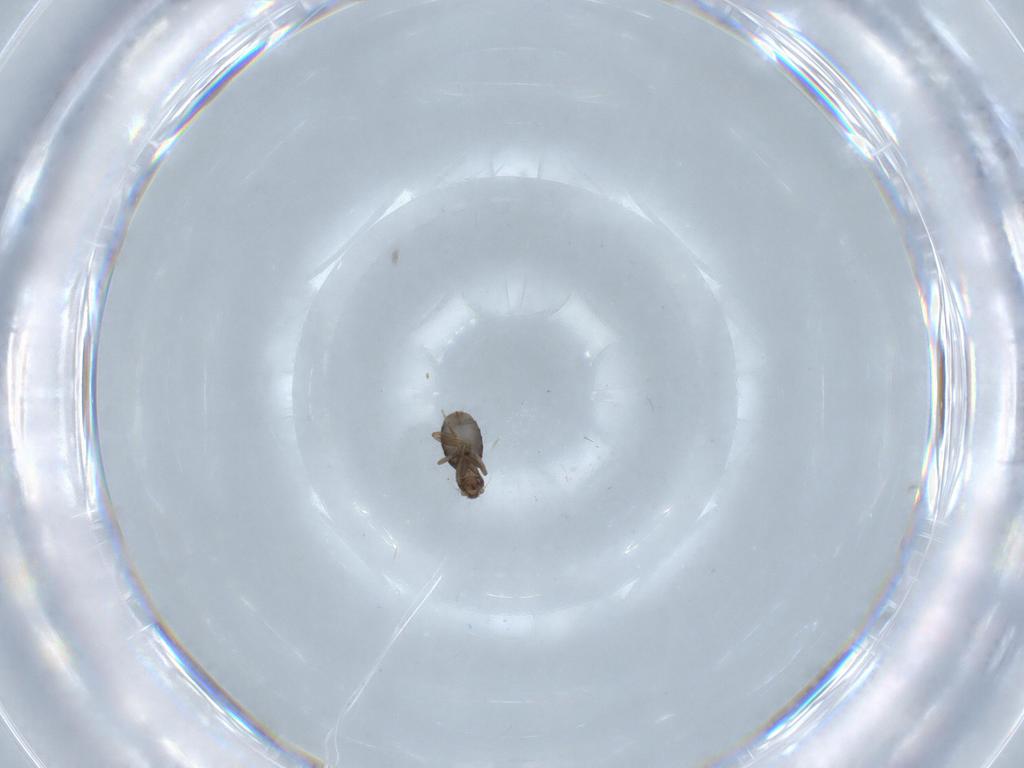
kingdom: Animalia
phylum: Arthropoda
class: Insecta
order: Diptera
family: Phoridae
